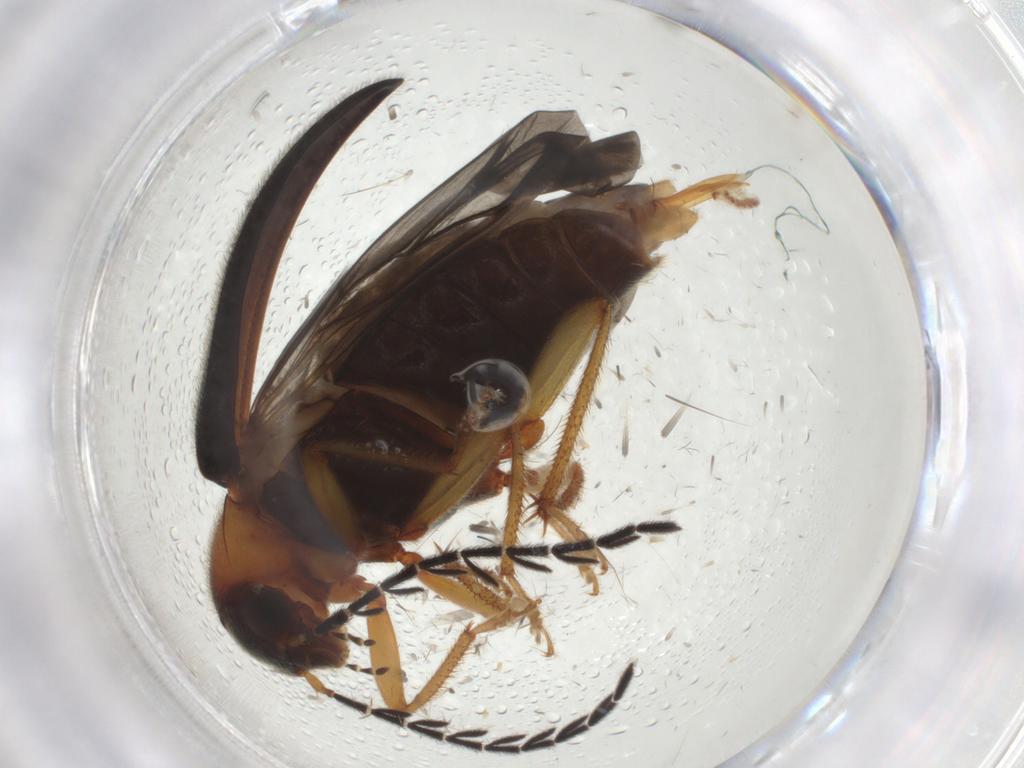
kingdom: Animalia
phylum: Arthropoda
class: Insecta
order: Coleoptera
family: Ptilodactylidae
